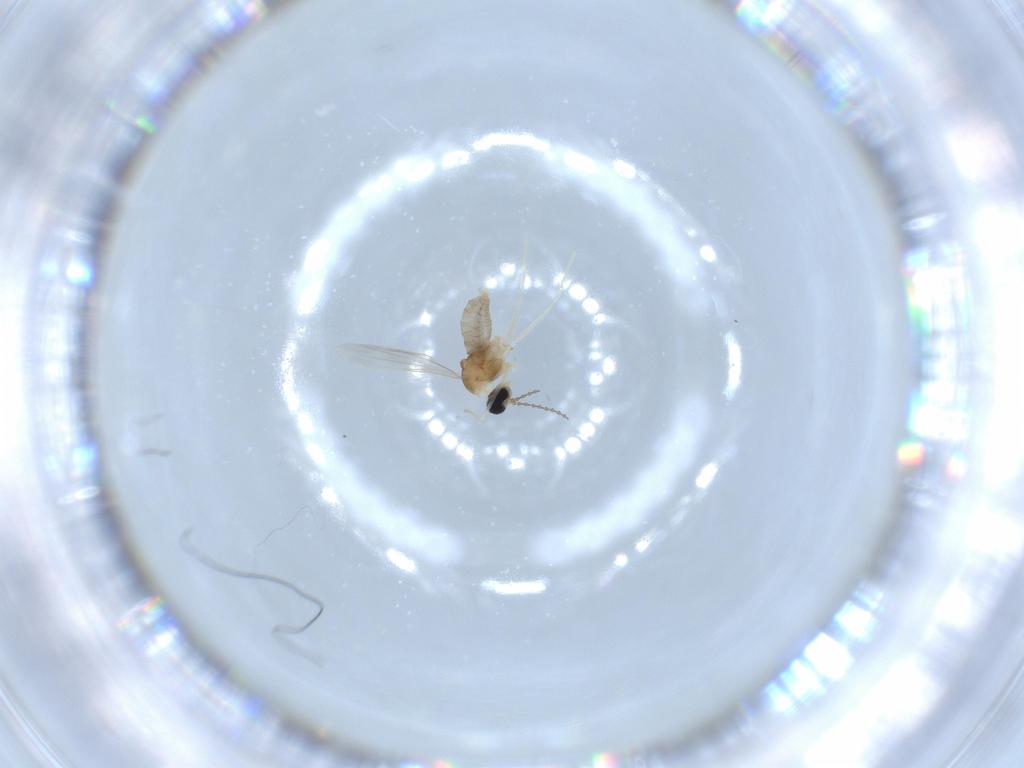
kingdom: Animalia
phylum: Arthropoda
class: Insecta
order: Diptera
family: Cecidomyiidae
